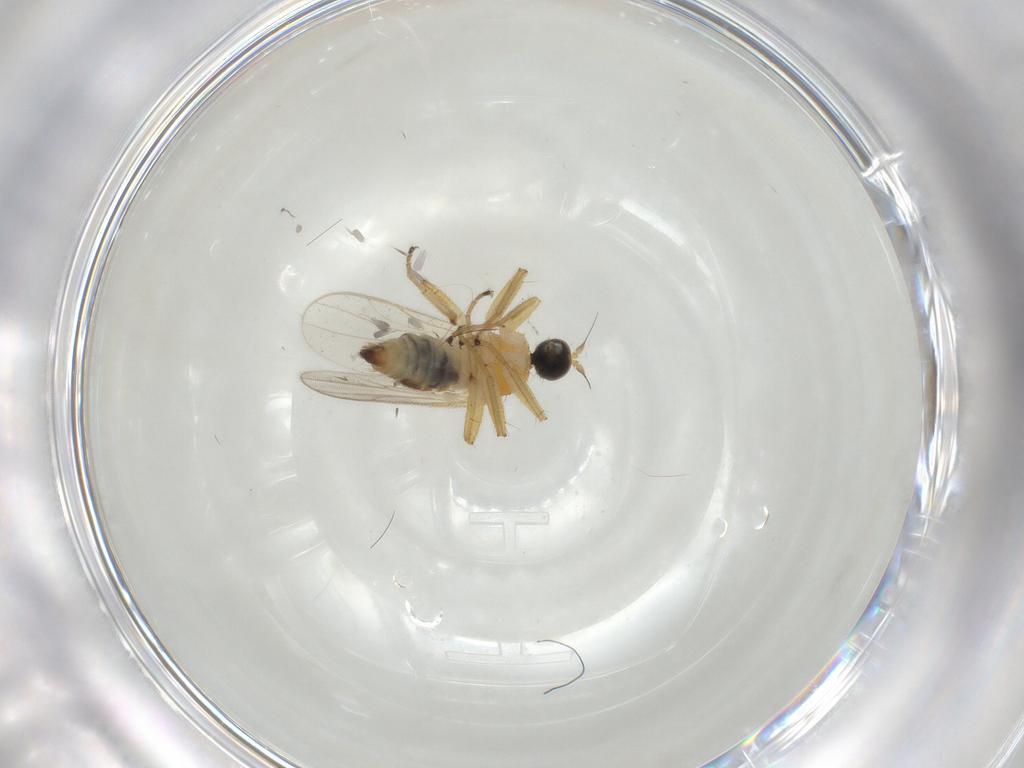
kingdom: Animalia
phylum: Arthropoda
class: Insecta
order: Diptera
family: Hybotidae
